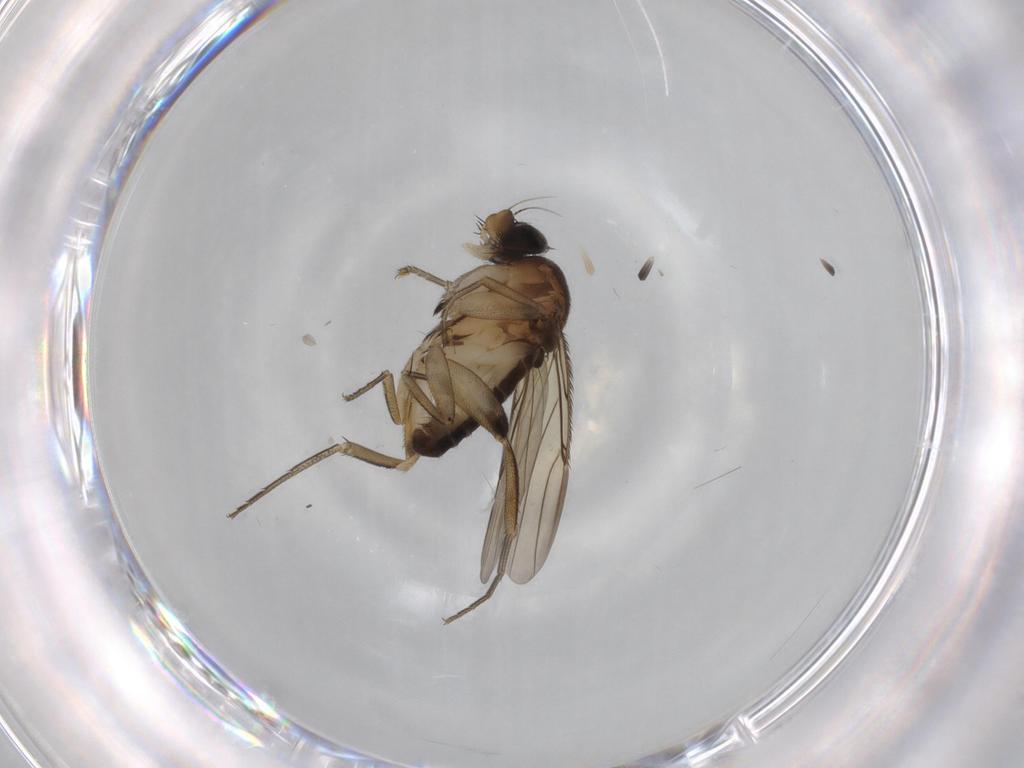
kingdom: Animalia
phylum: Arthropoda
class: Insecta
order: Diptera
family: Phoridae
